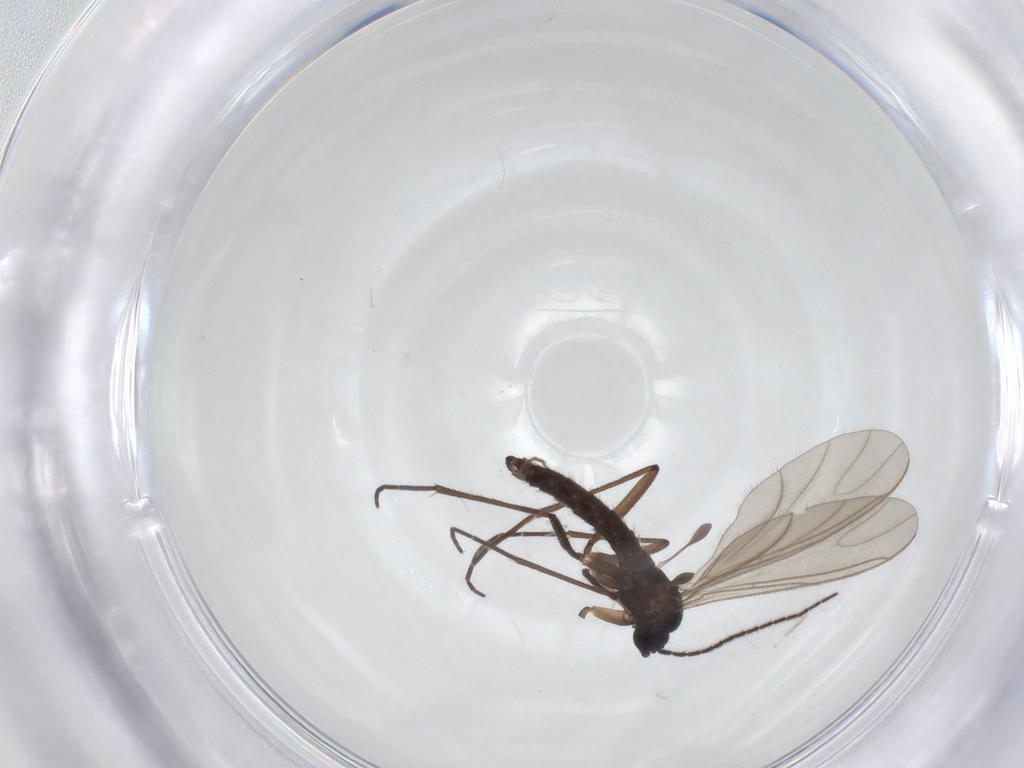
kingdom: Animalia
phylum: Arthropoda
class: Insecta
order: Diptera
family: Sciaridae
